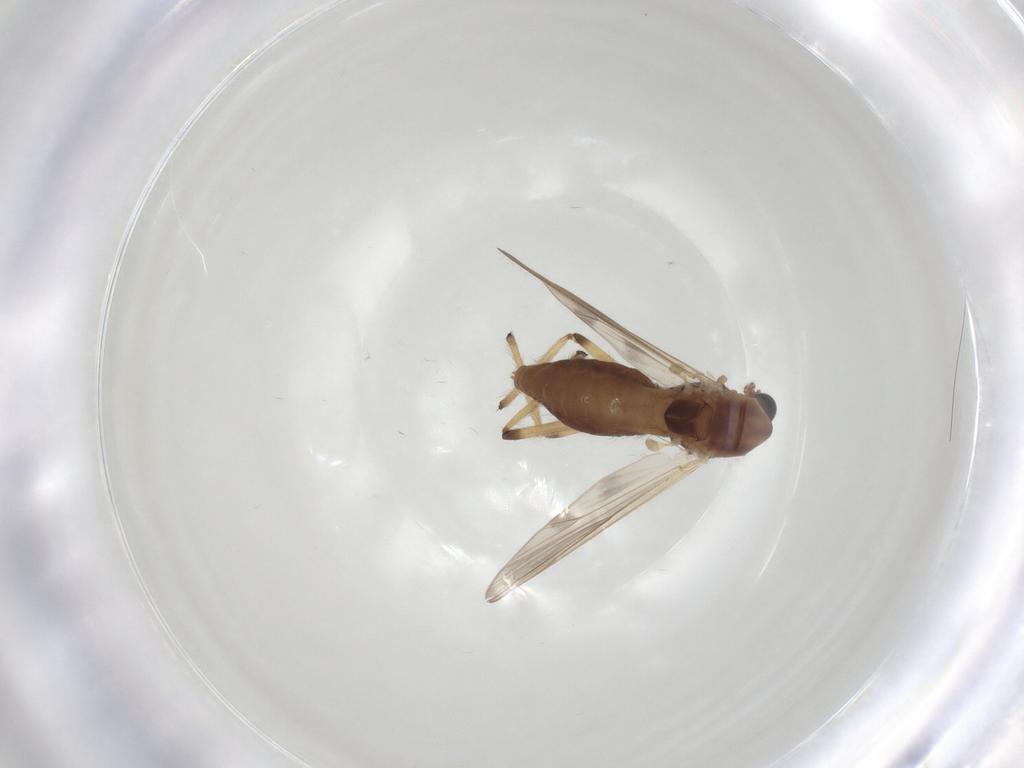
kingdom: Animalia
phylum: Arthropoda
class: Insecta
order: Diptera
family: Chironomidae
